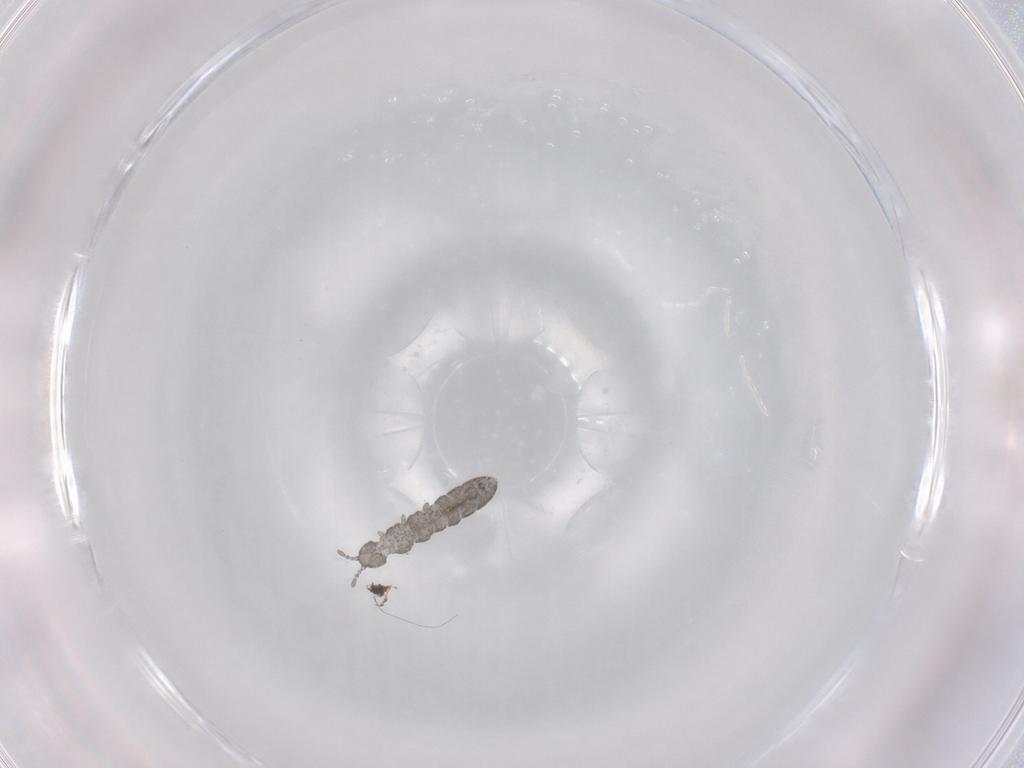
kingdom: Animalia
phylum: Arthropoda
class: Collembola
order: Entomobryomorpha
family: Isotomidae
